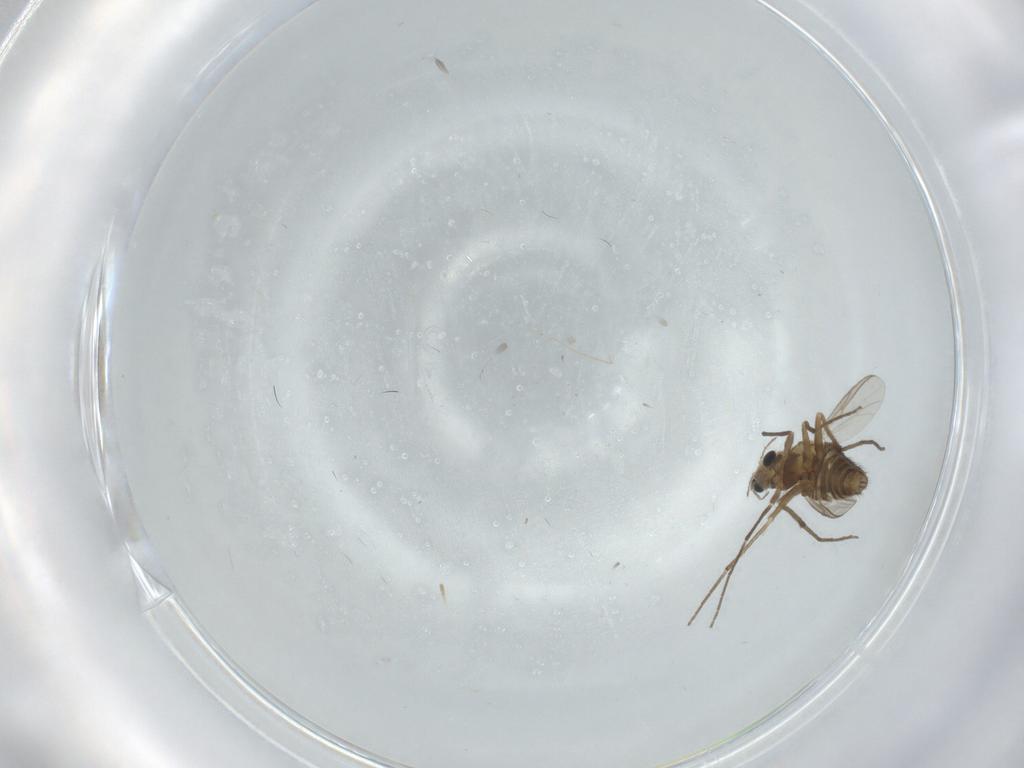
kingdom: Animalia
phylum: Arthropoda
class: Insecta
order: Diptera
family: Chironomidae
